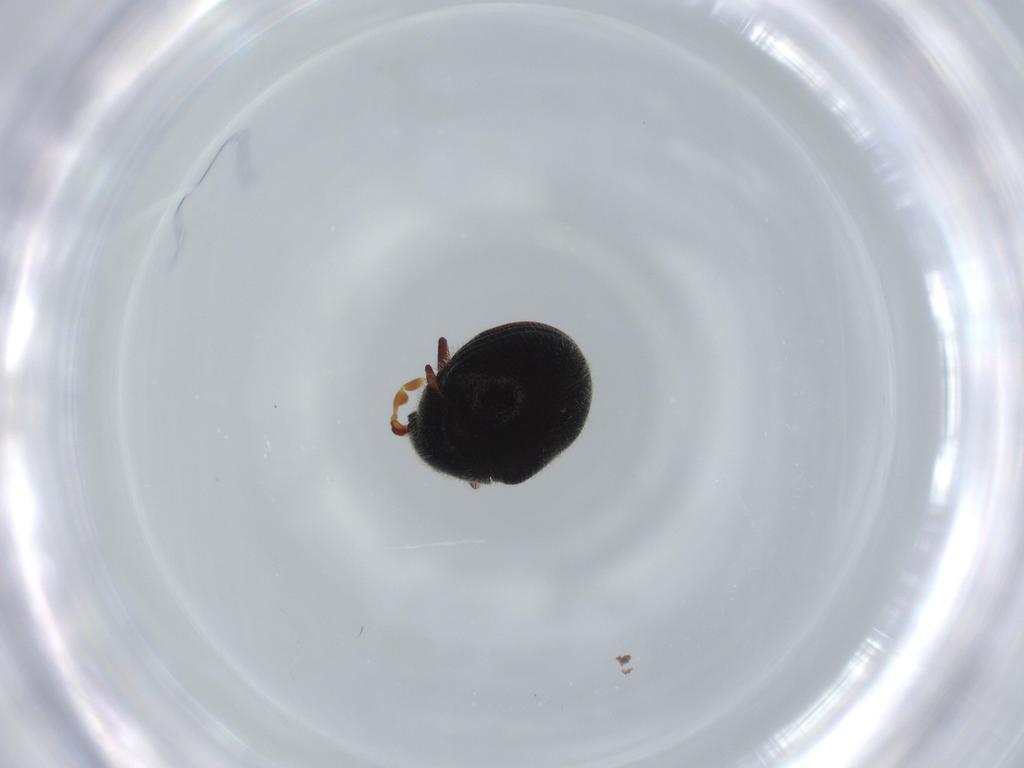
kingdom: Animalia
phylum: Arthropoda
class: Insecta
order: Coleoptera
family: Cybocephalidae
